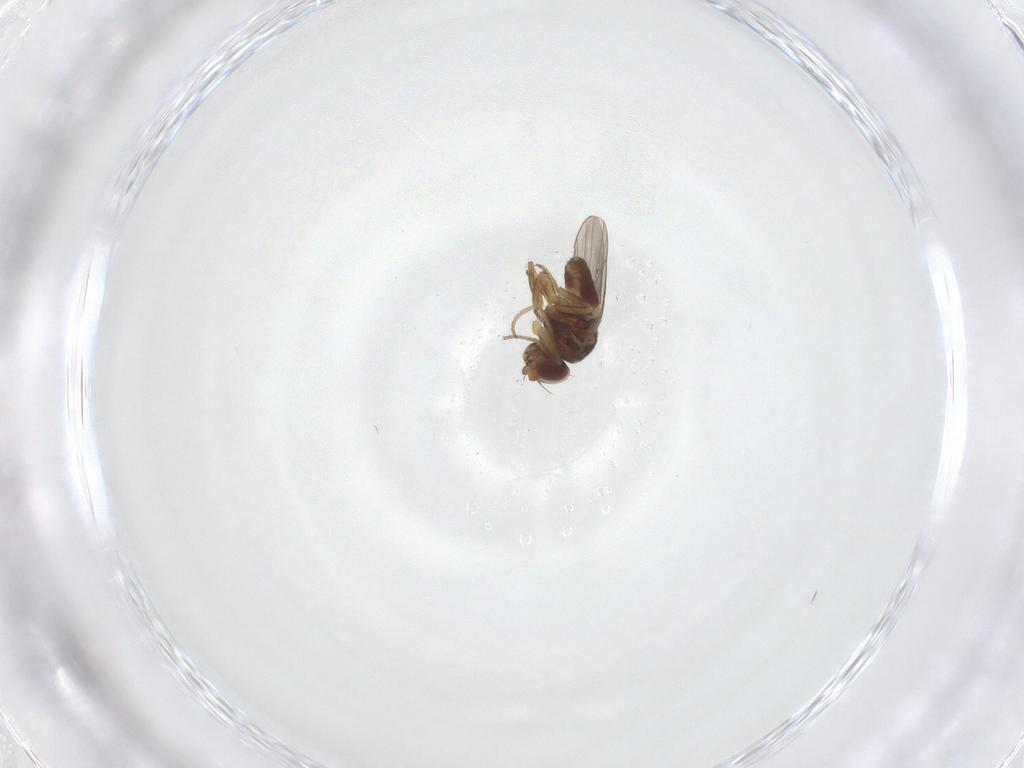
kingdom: Animalia
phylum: Arthropoda
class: Insecta
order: Diptera
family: Chloropidae
